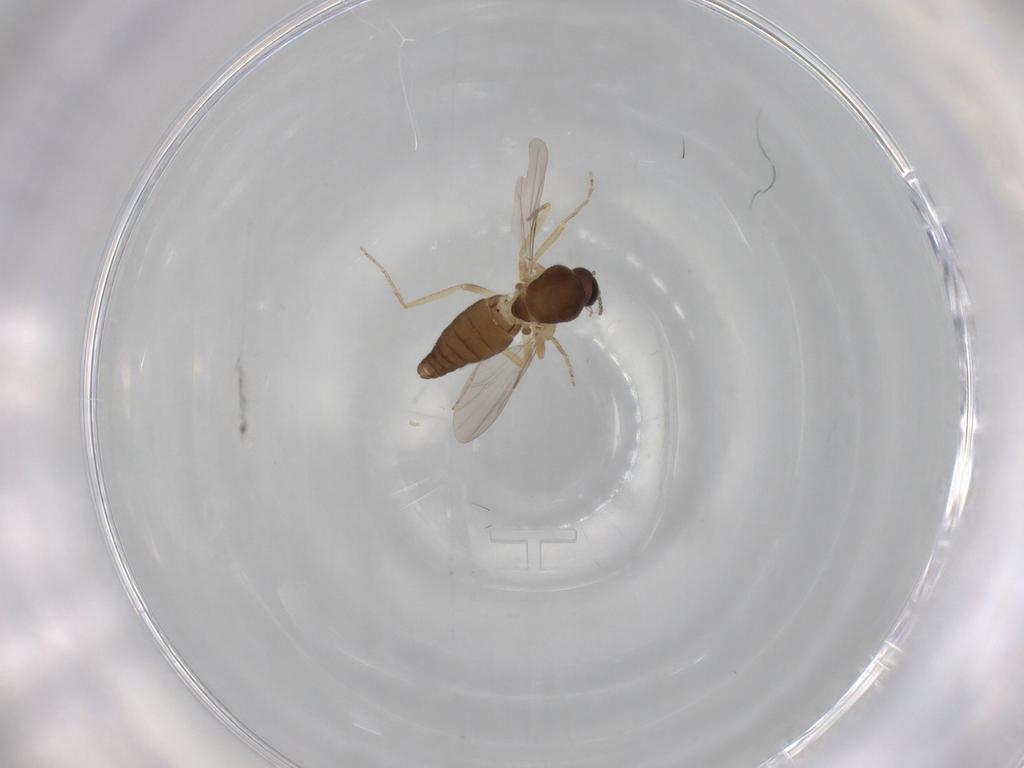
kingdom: Animalia
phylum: Arthropoda
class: Insecta
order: Diptera
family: Ceratopogonidae
